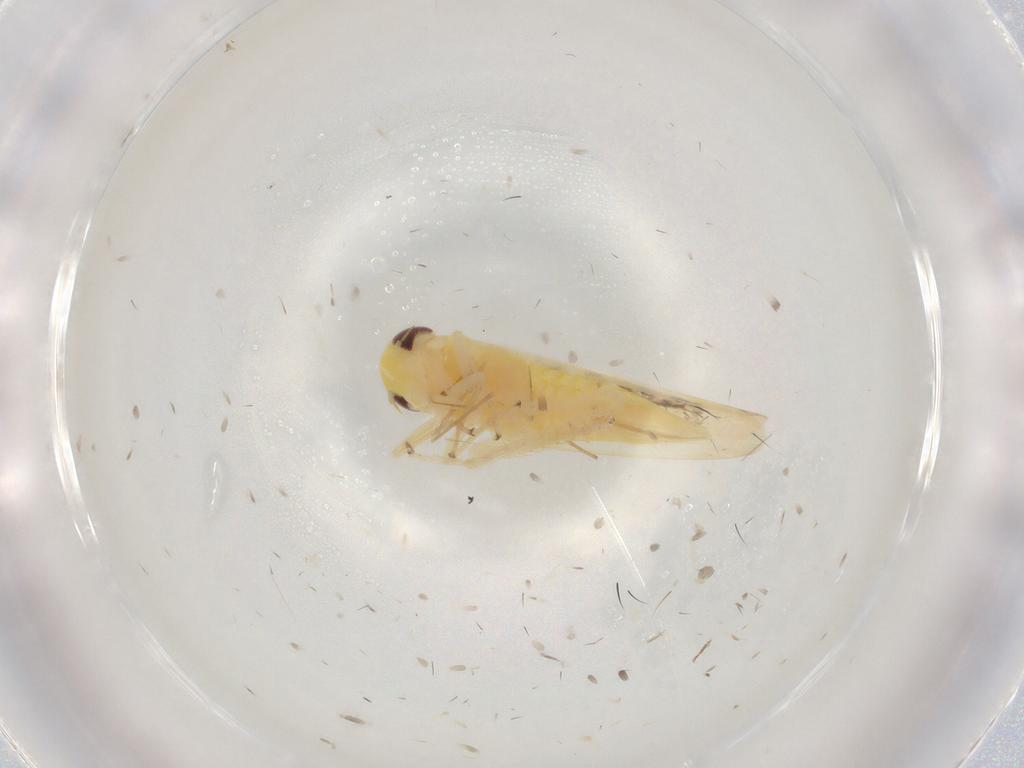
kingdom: Animalia
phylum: Arthropoda
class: Insecta
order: Hemiptera
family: Cicadellidae
